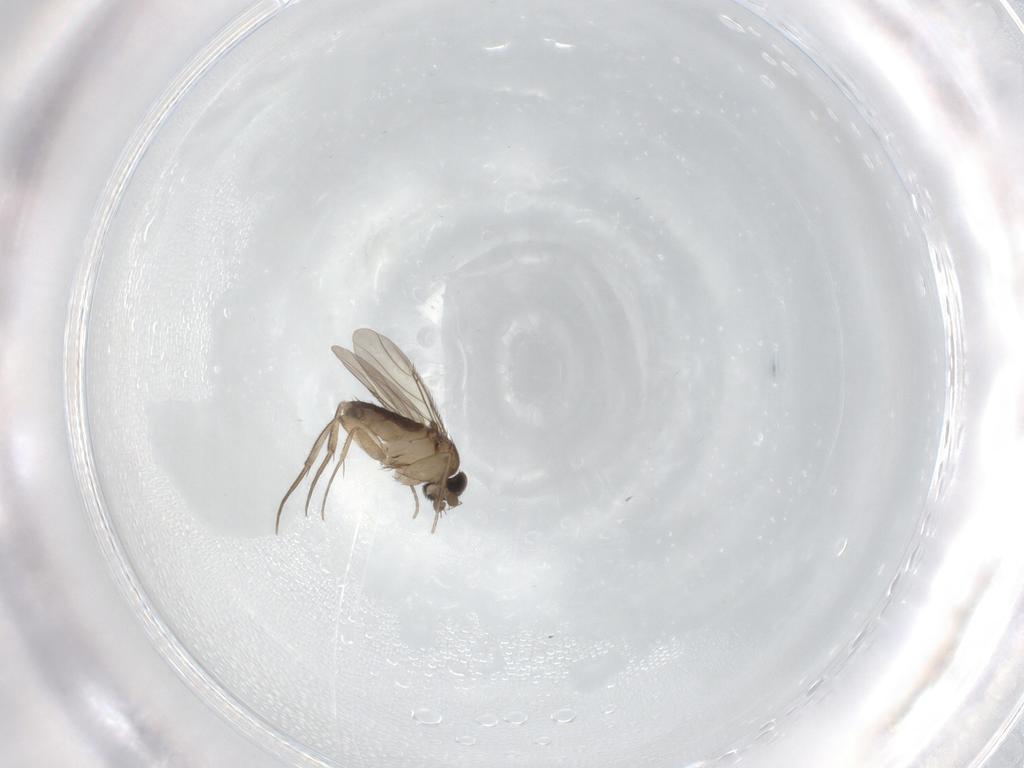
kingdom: Animalia
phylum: Arthropoda
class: Insecta
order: Diptera
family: Phoridae
